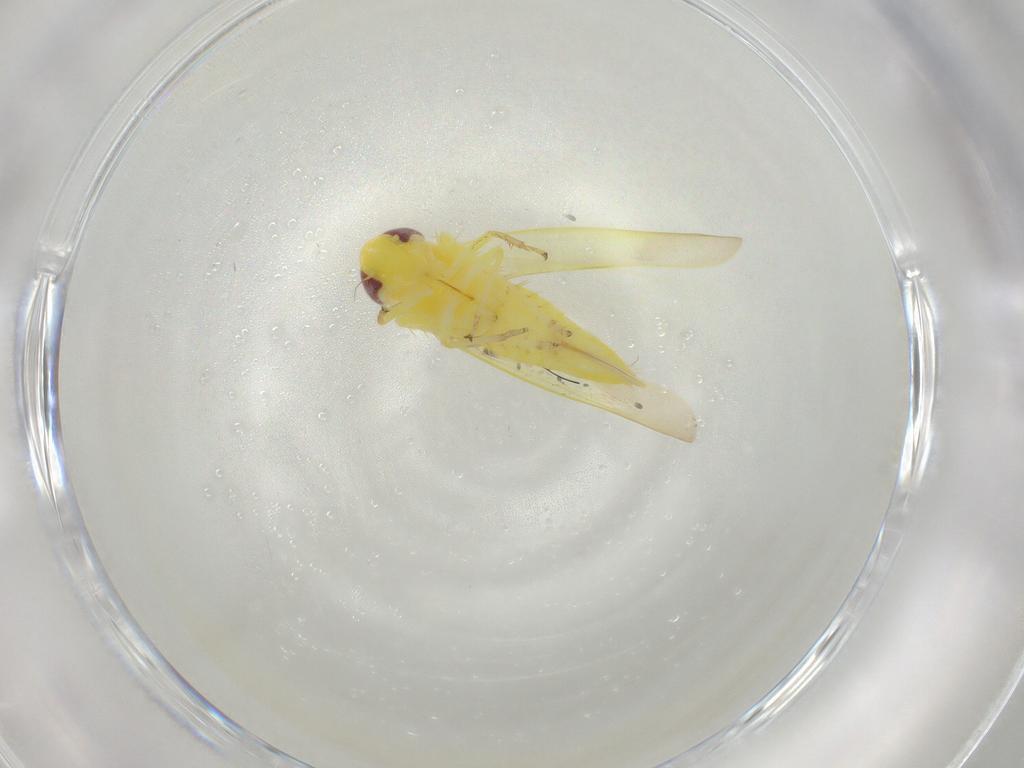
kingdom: Animalia
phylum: Arthropoda
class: Insecta
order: Hemiptera
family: Cicadellidae
